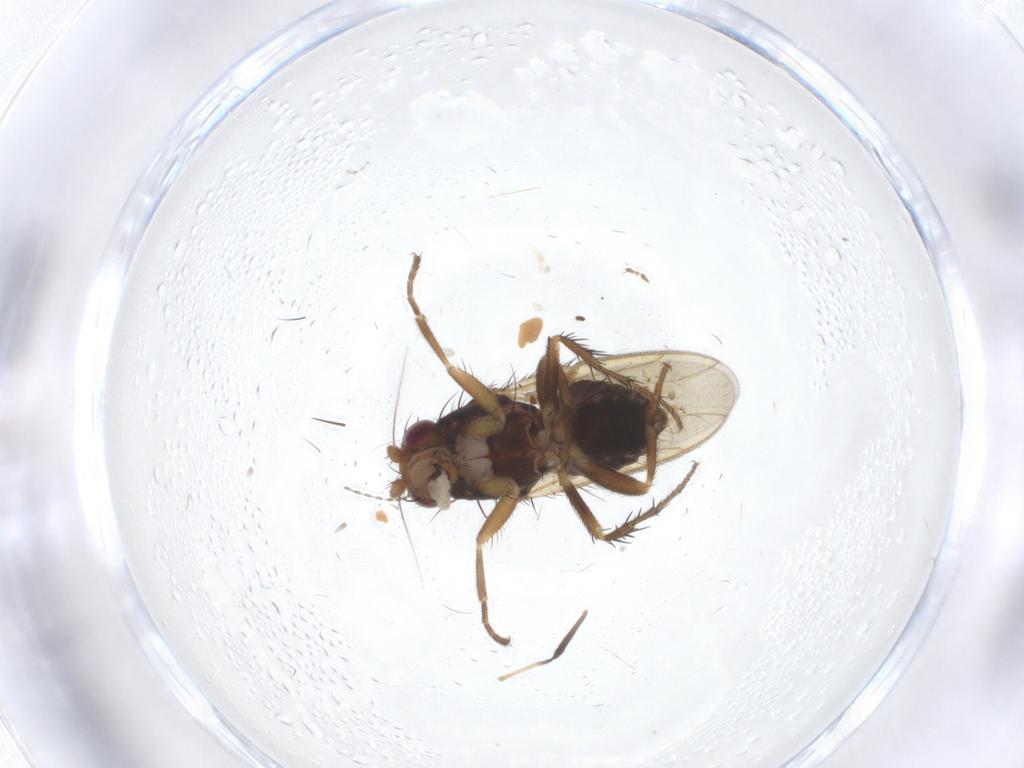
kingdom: Animalia
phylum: Arthropoda
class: Insecta
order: Diptera
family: Sphaeroceridae
